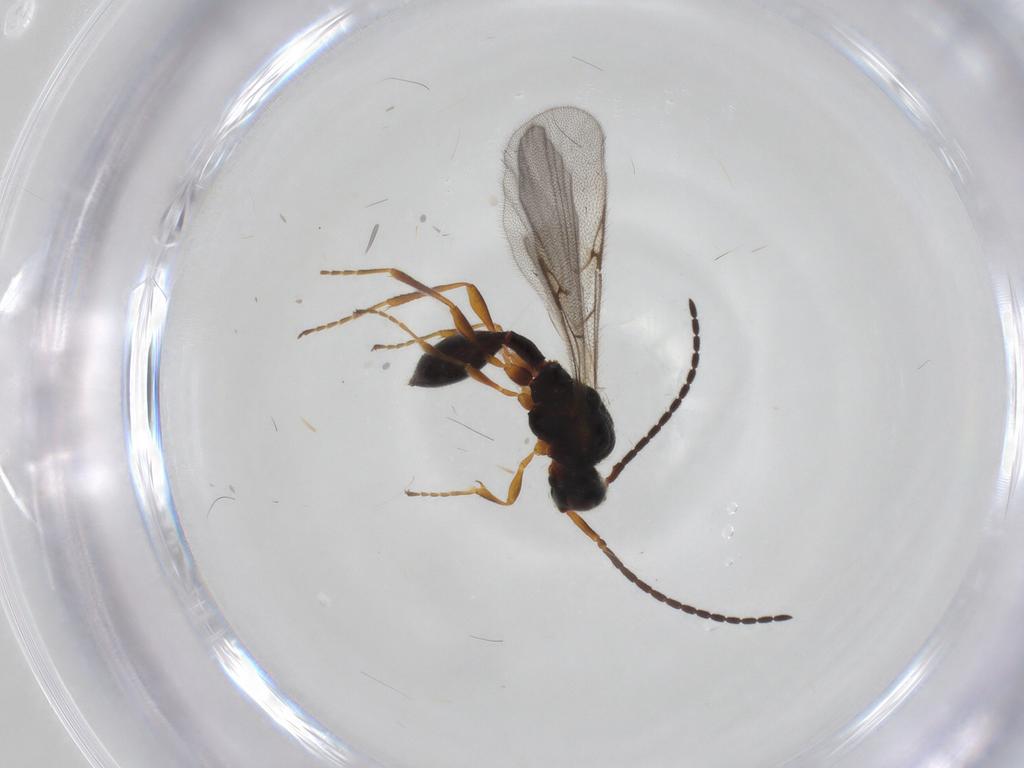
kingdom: Animalia
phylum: Arthropoda
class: Insecta
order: Hymenoptera
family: Diapriidae
